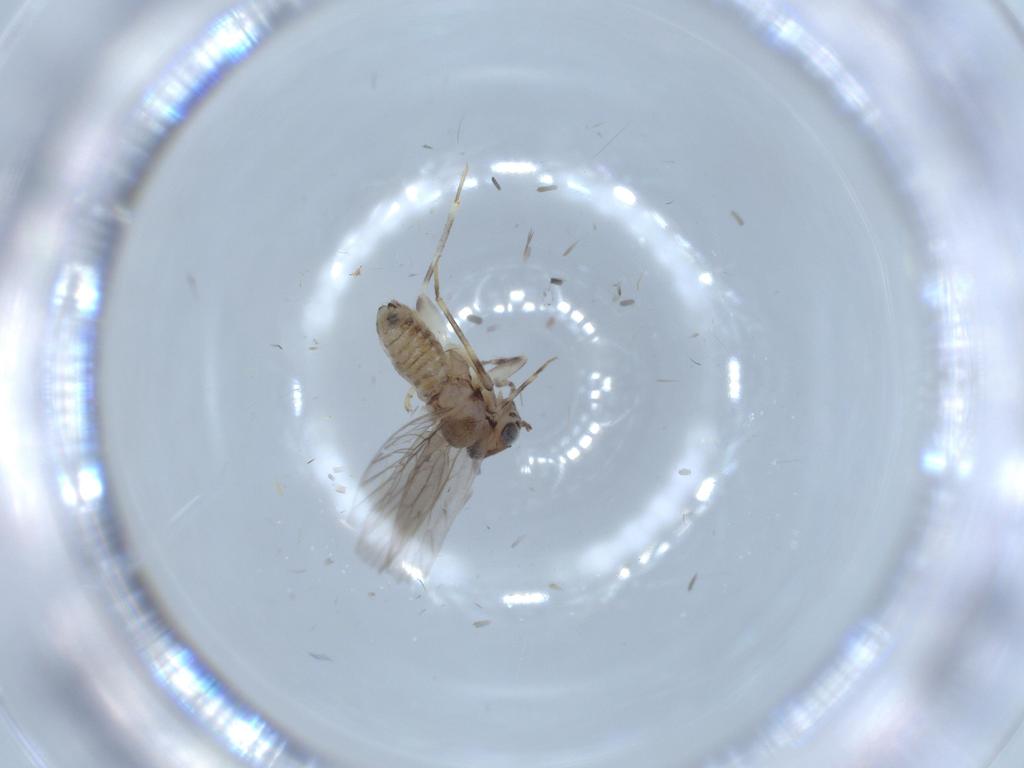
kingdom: Animalia
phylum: Arthropoda
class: Insecta
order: Psocodea
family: Lepidopsocidae
